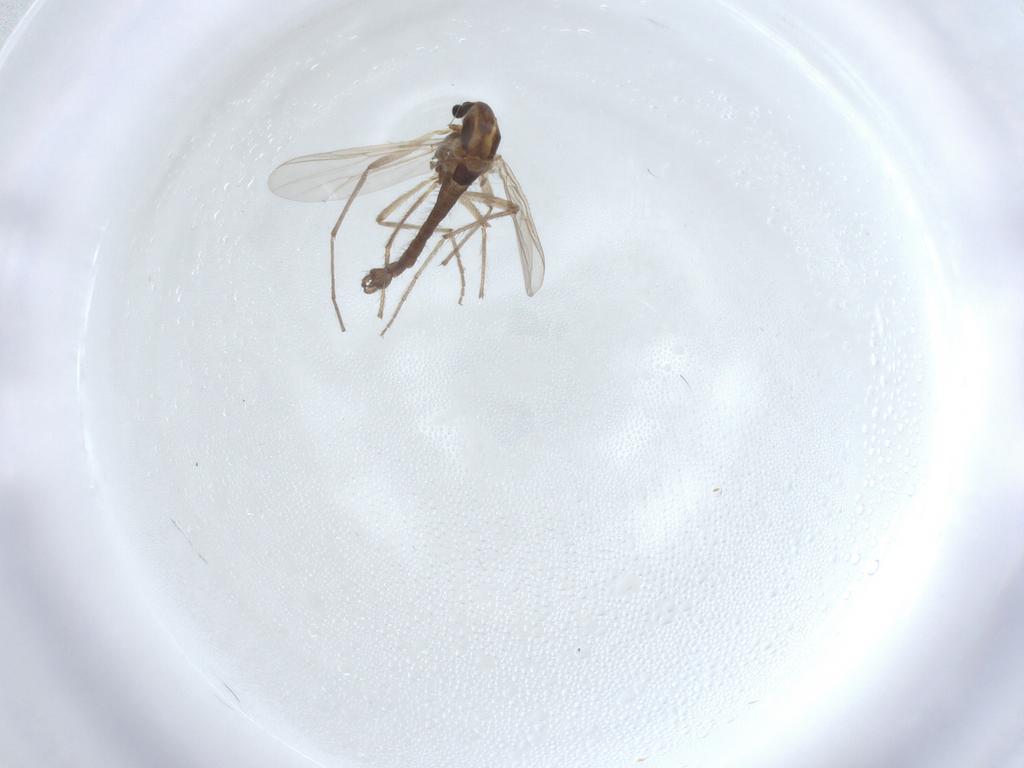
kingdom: Animalia
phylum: Arthropoda
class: Insecta
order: Diptera
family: Chironomidae
